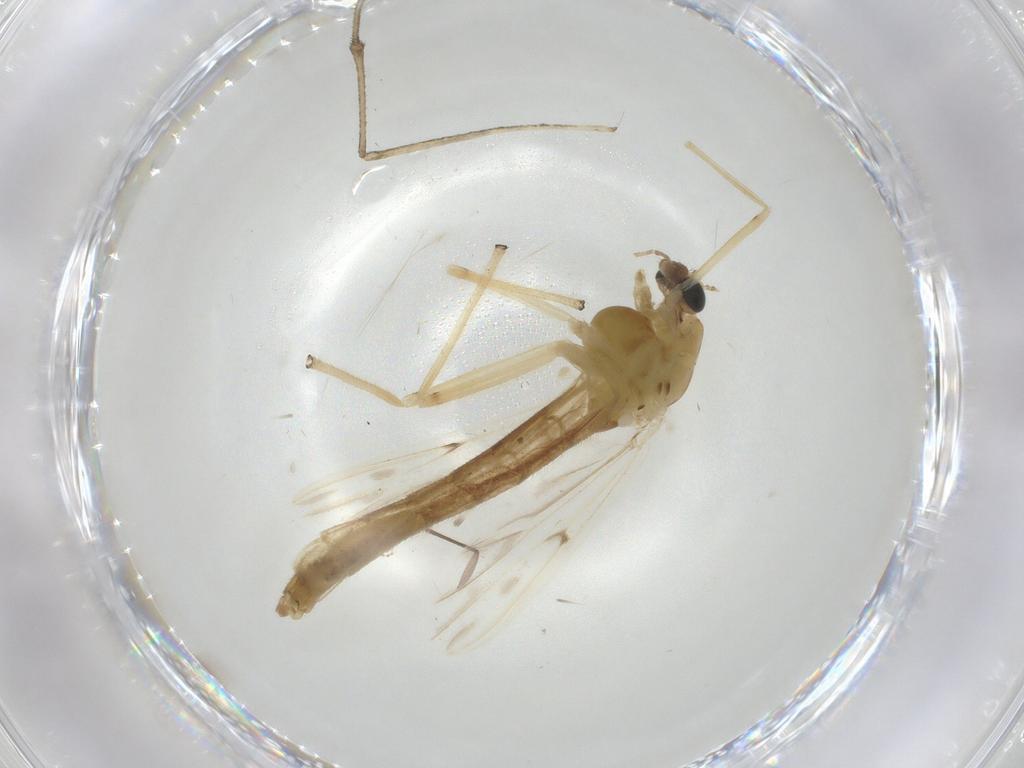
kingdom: Animalia
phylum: Arthropoda
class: Insecta
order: Diptera
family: Chironomidae
